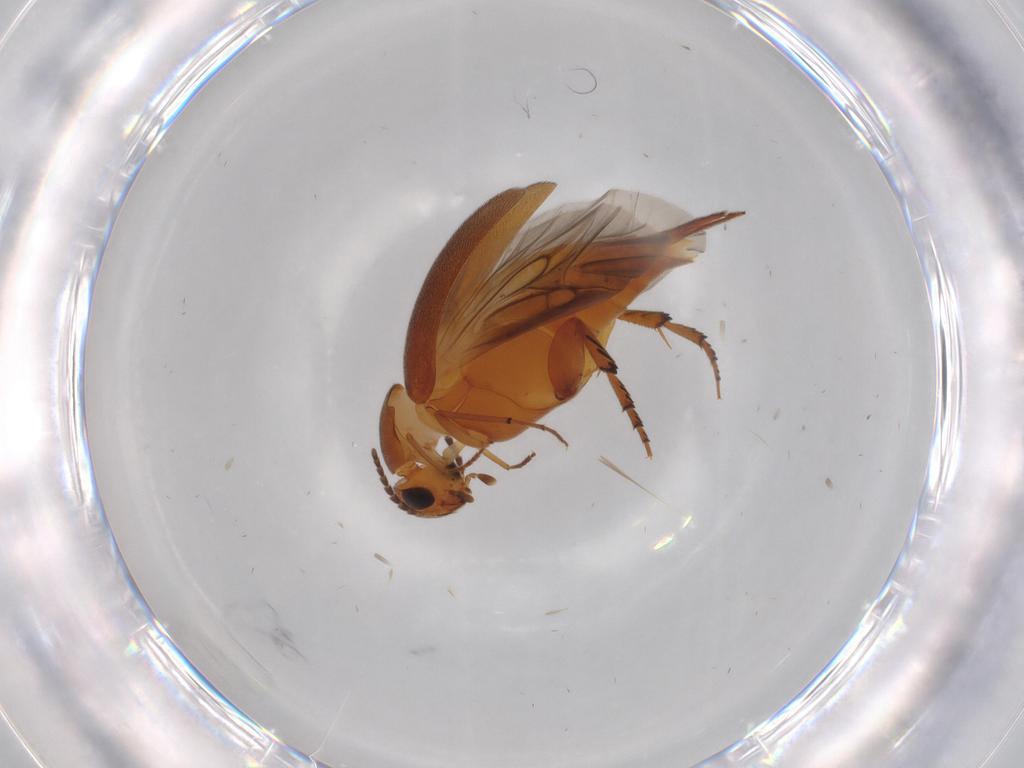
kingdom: Animalia
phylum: Arthropoda
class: Insecta
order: Coleoptera
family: Mordellidae
